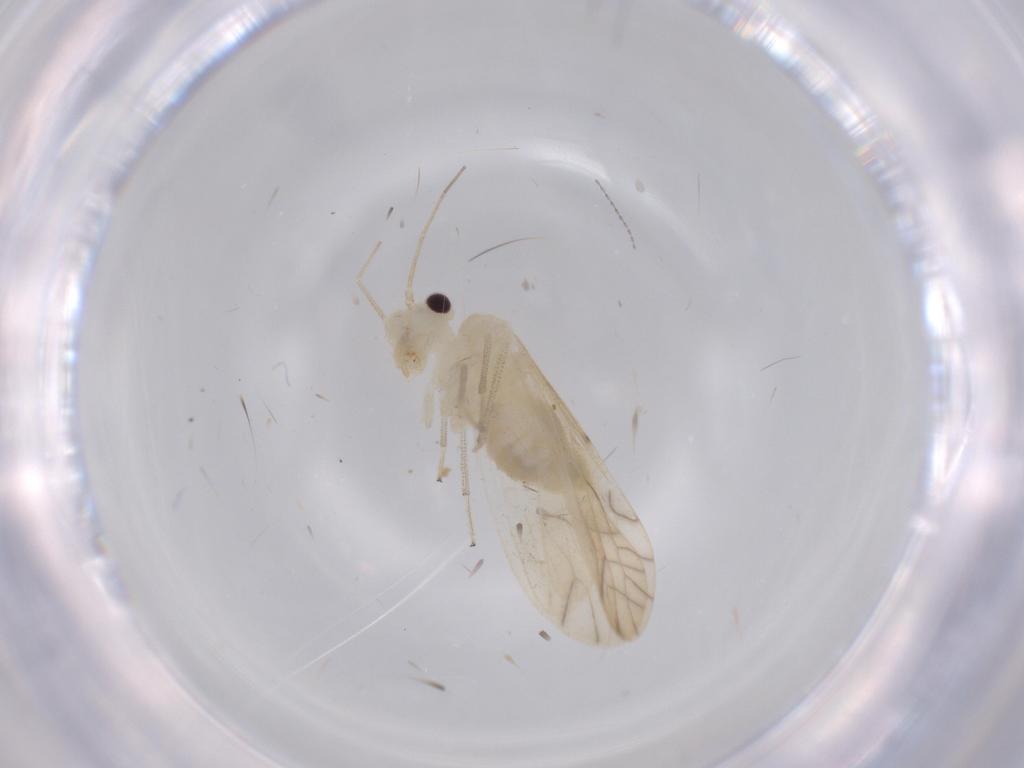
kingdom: Animalia
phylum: Arthropoda
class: Insecta
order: Psocodea
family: Caeciliusidae
